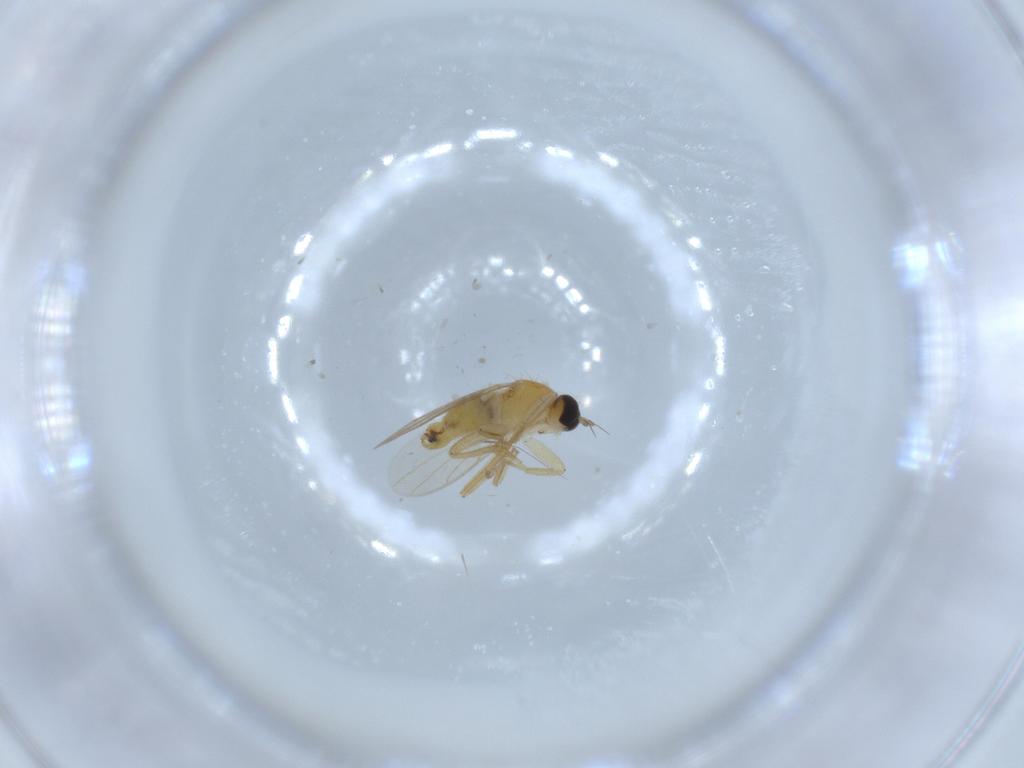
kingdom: Animalia
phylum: Arthropoda
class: Insecta
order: Diptera
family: Hybotidae
